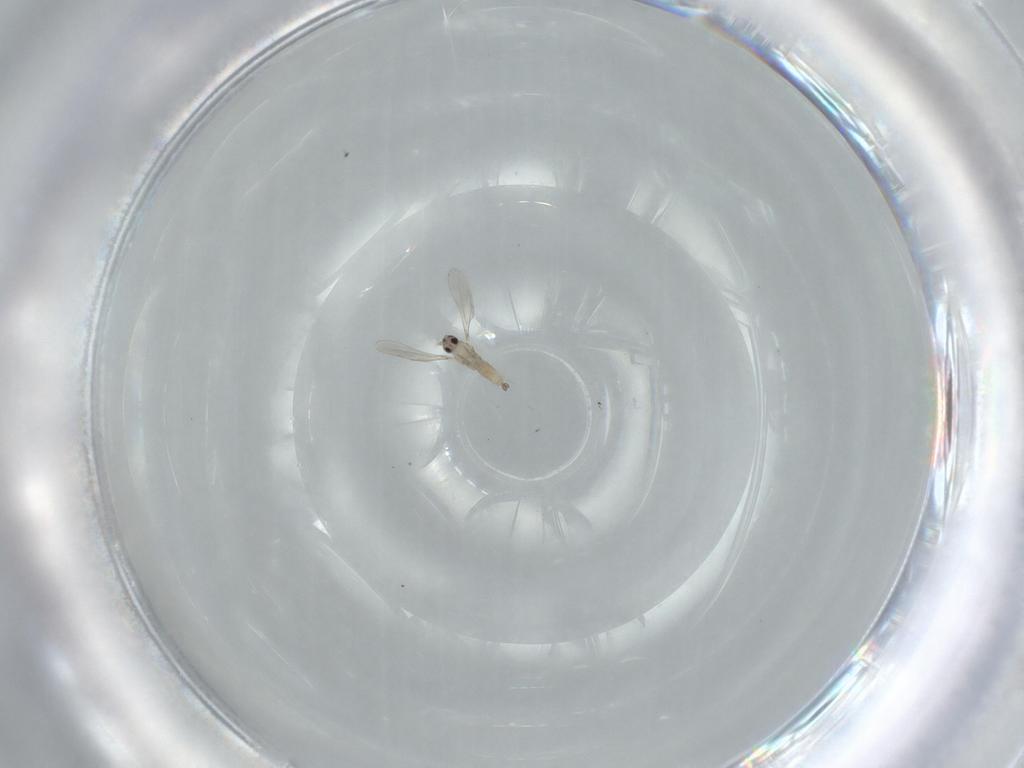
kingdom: Animalia
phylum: Arthropoda
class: Insecta
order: Diptera
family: Cecidomyiidae
